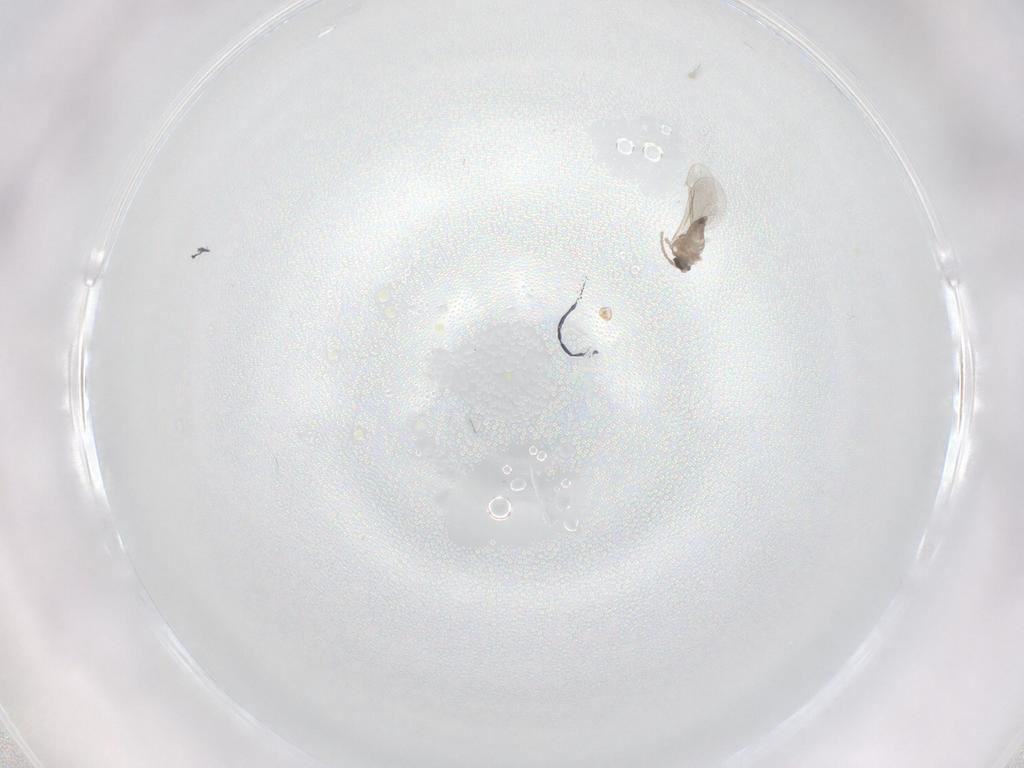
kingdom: Animalia
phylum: Arthropoda
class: Insecta
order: Diptera
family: Cecidomyiidae
